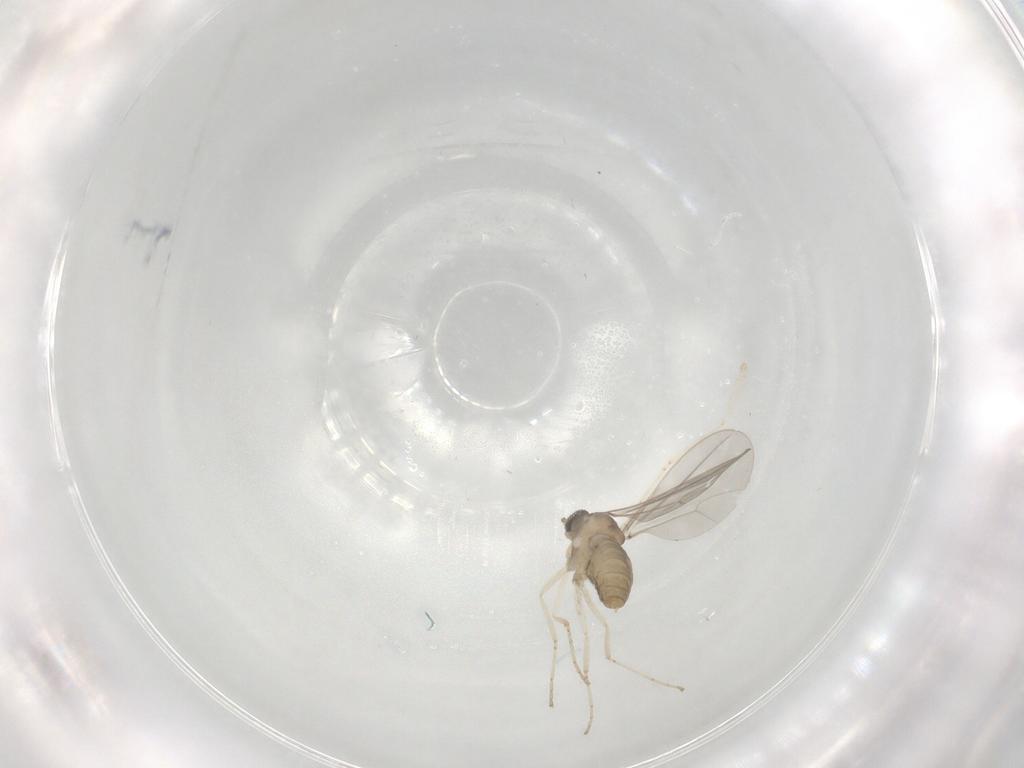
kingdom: Animalia
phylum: Arthropoda
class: Insecta
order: Diptera
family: Cecidomyiidae
